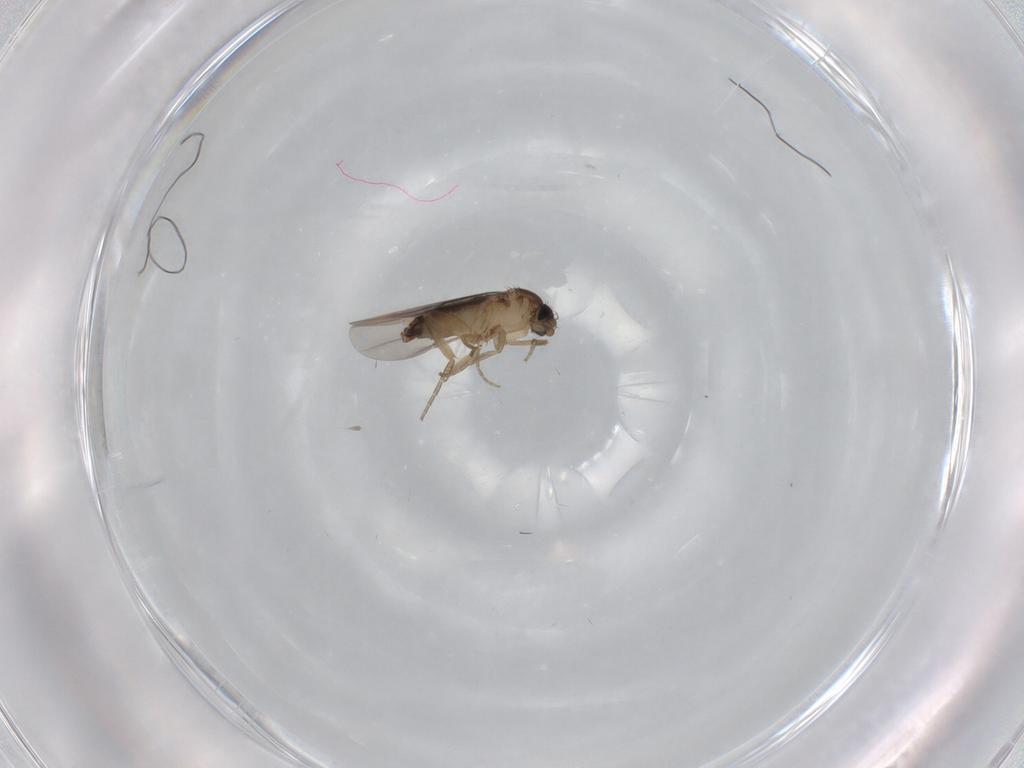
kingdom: Animalia
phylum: Arthropoda
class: Insecta
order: Diptera
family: Phoridae
